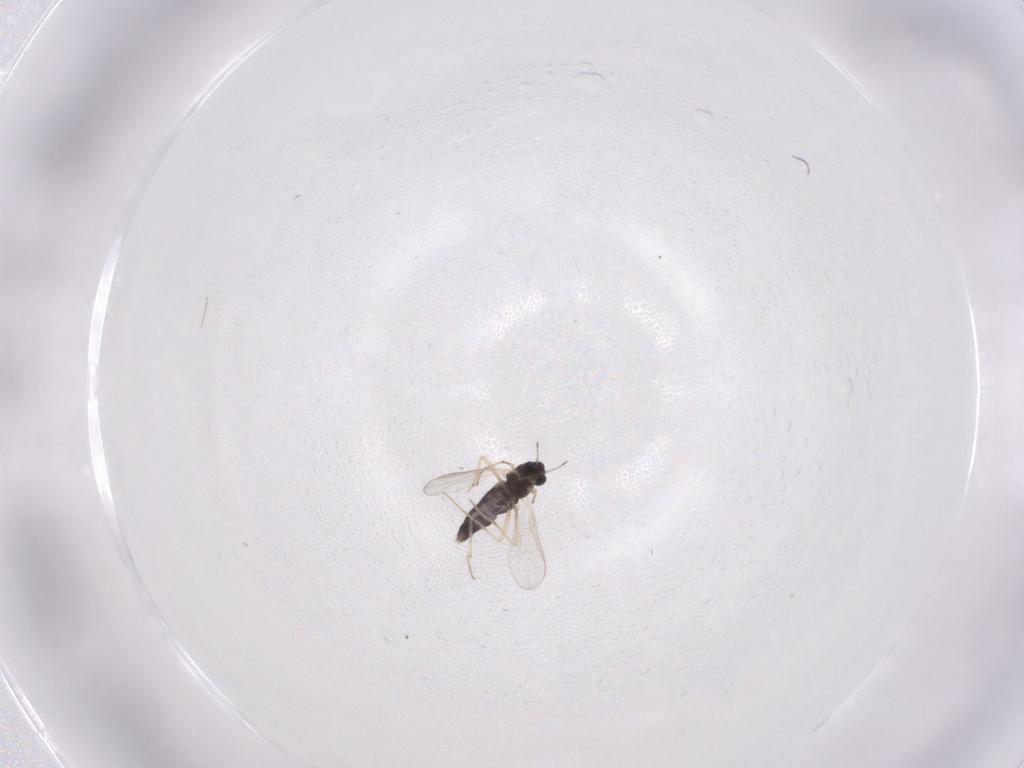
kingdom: Animalia
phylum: Arthropoda
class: Insecta
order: Diptera
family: Chironomidae
